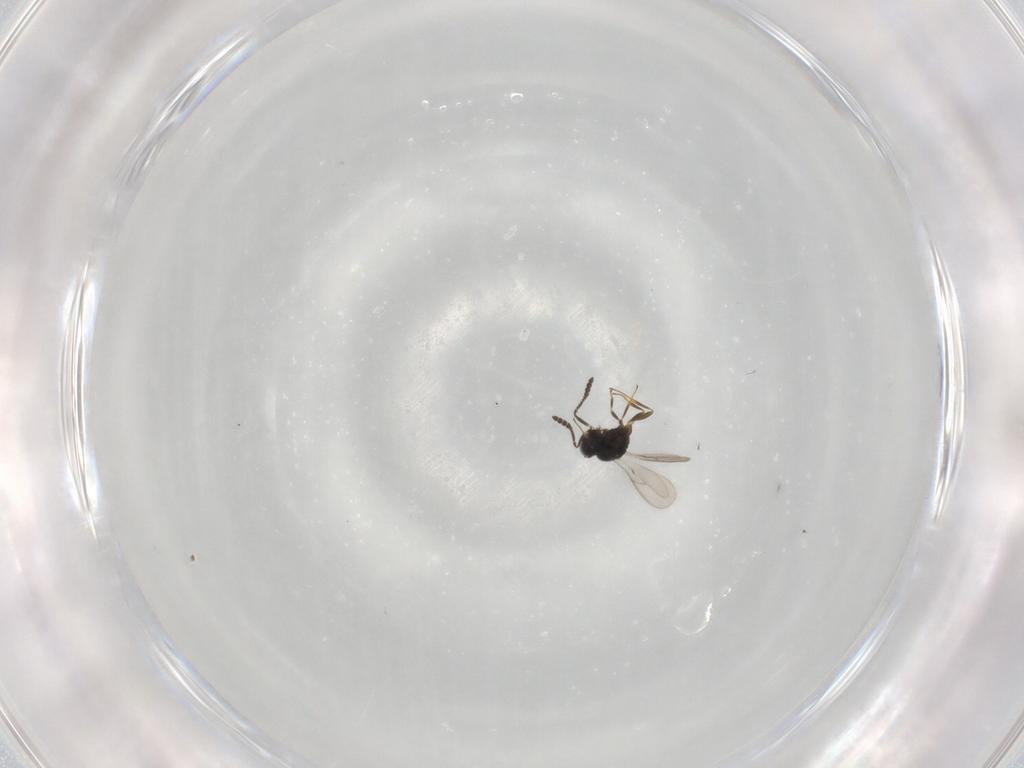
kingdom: Animalia
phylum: Arthropoda
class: Insecta
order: Hymenoptera
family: Scelionidae
